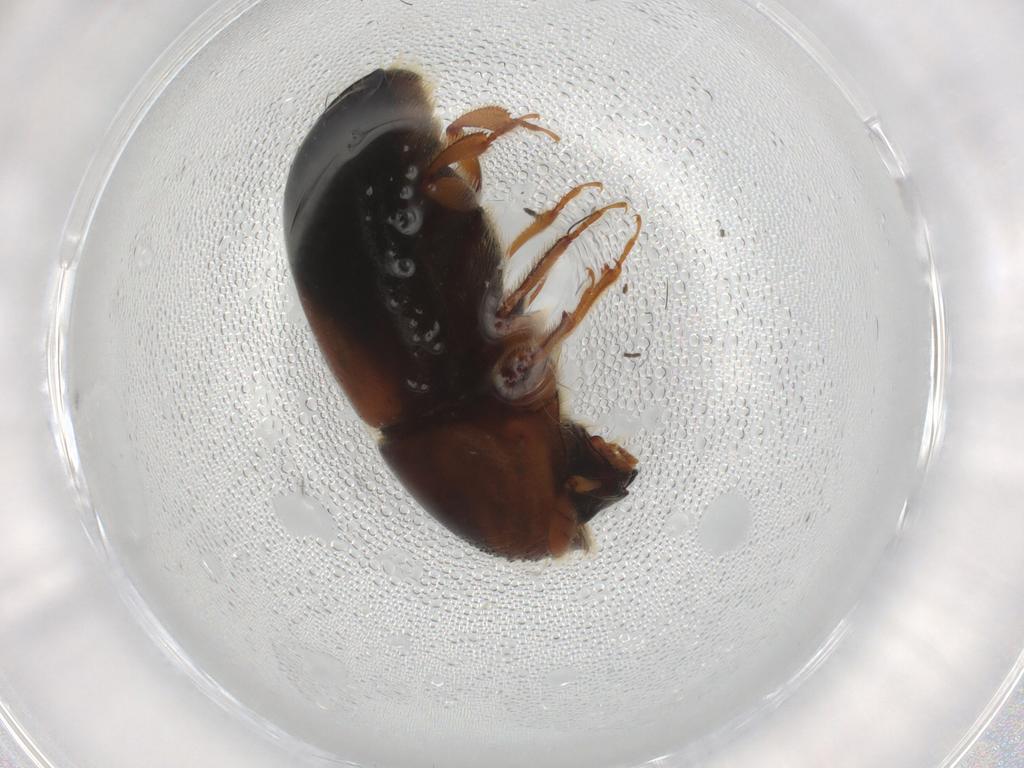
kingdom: Animalia
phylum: Arthropoda
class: Insecta
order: Coleoptera
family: Curculionidae
